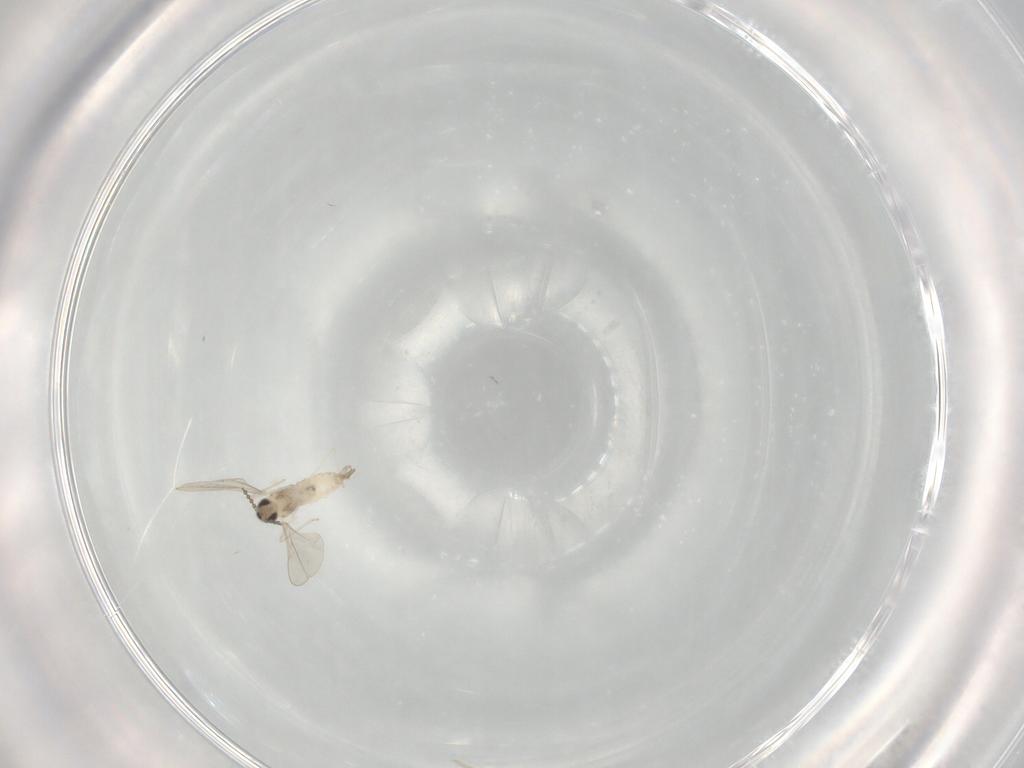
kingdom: Animalia
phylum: Arthropoda
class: Insecta
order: Diptera
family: Cecidomyiidae
